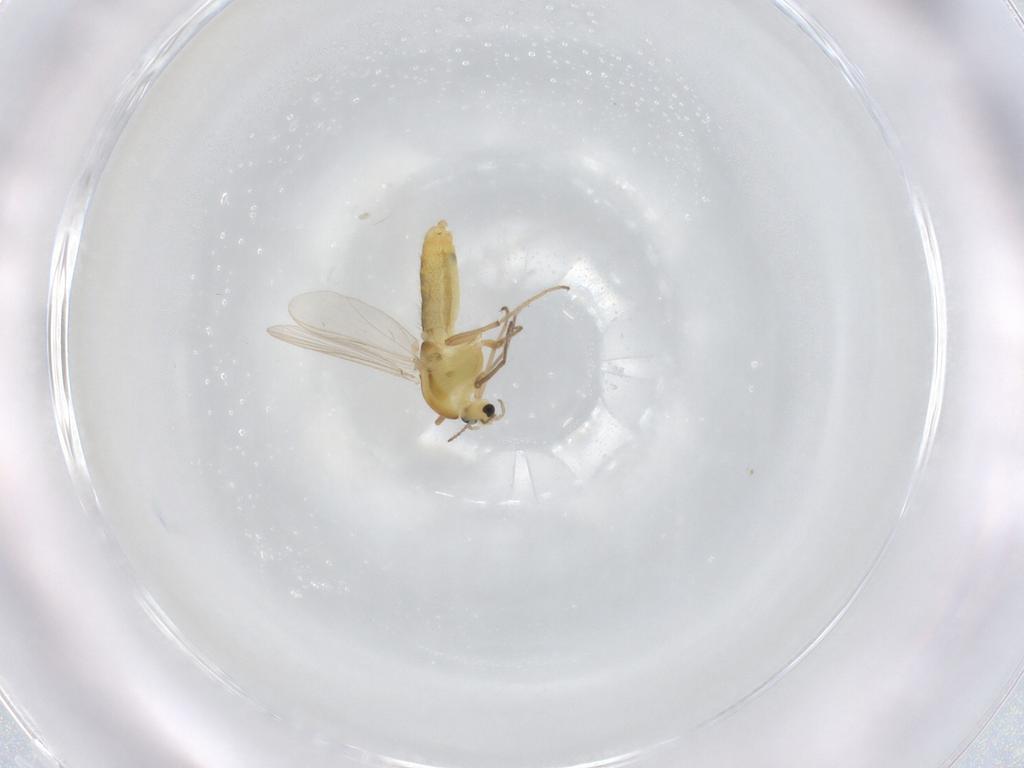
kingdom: Animalia
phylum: Arthropoda
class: Insecta
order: Diptera
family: Chironomidae
